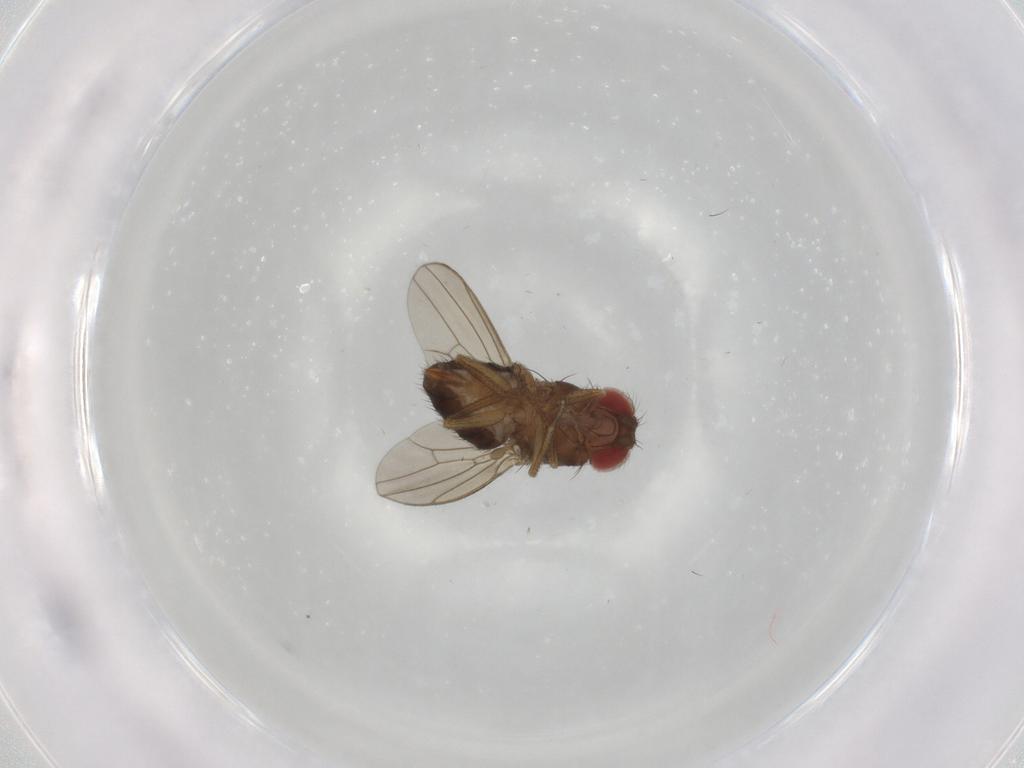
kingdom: Animalia
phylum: Arthropoda
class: Insecta
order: Diptera
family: Drosophilidae
